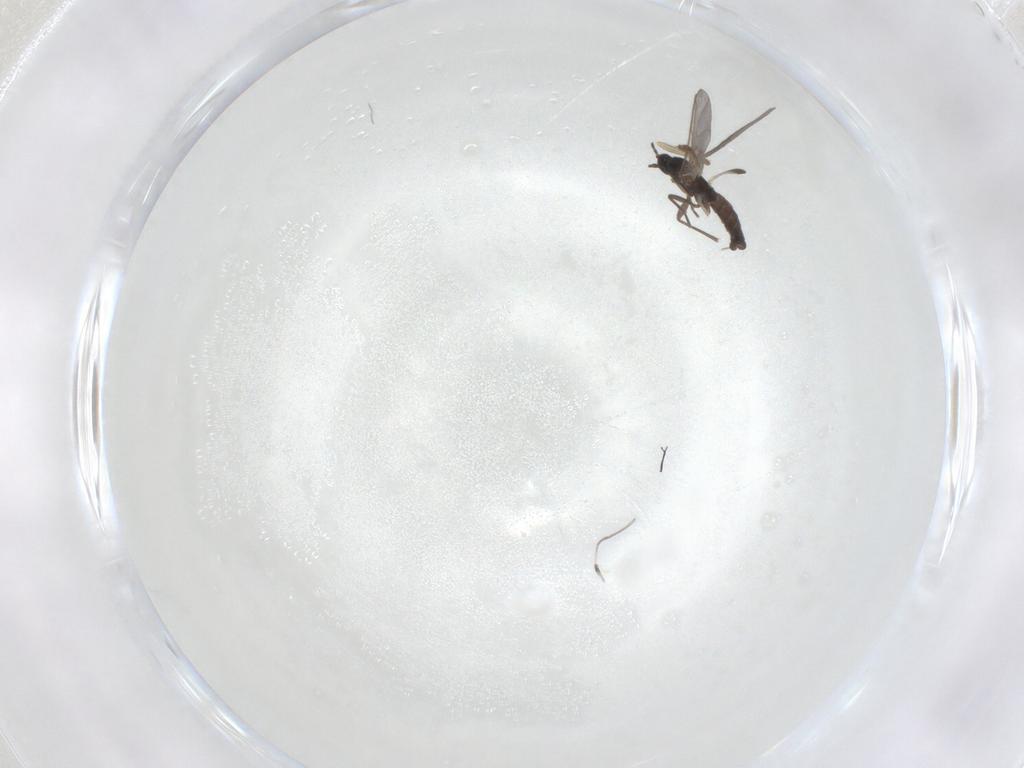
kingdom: Animalia
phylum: Arthropoda
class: Insecta
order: Diptera
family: Sciaridae
